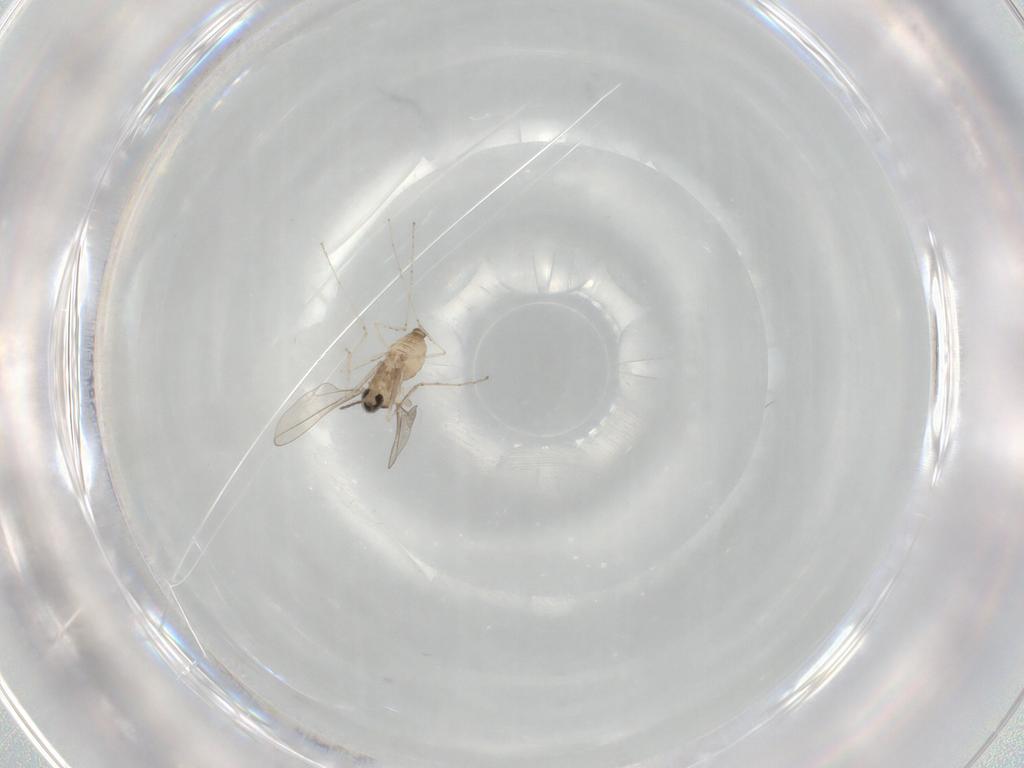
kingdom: Animalia
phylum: Arthropoda
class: Insecta
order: Diptera
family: Cecidomyiidae
